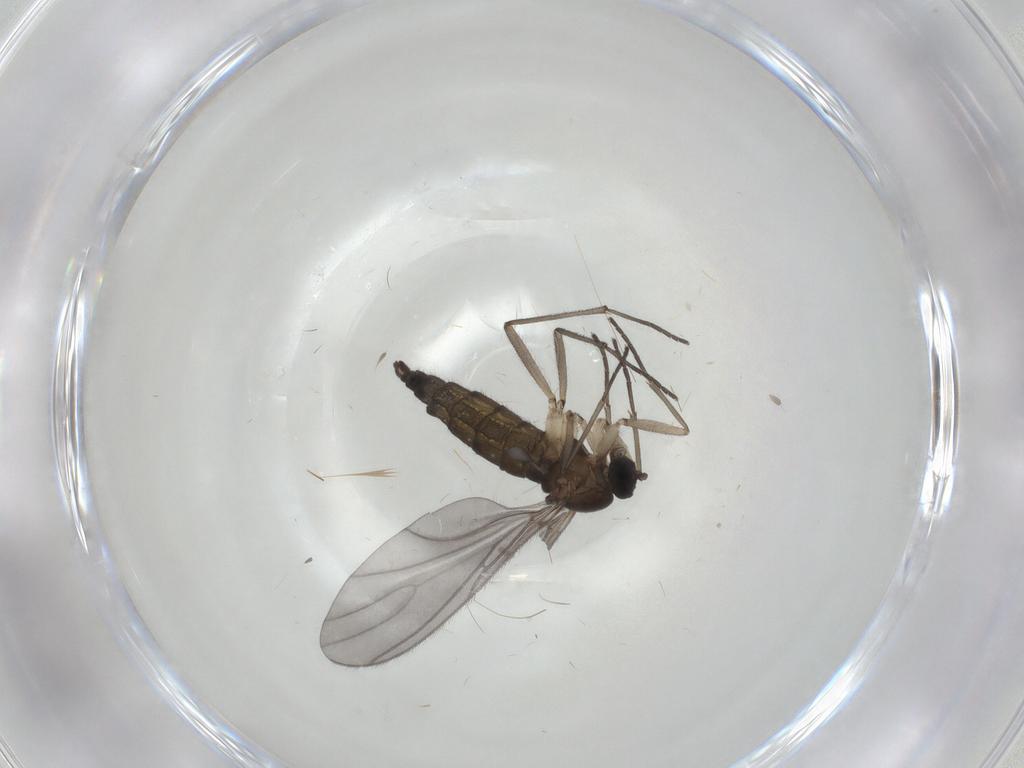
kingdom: Animalia
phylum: Arthropoda
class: Insecta
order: Diptera
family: Sciaridae
